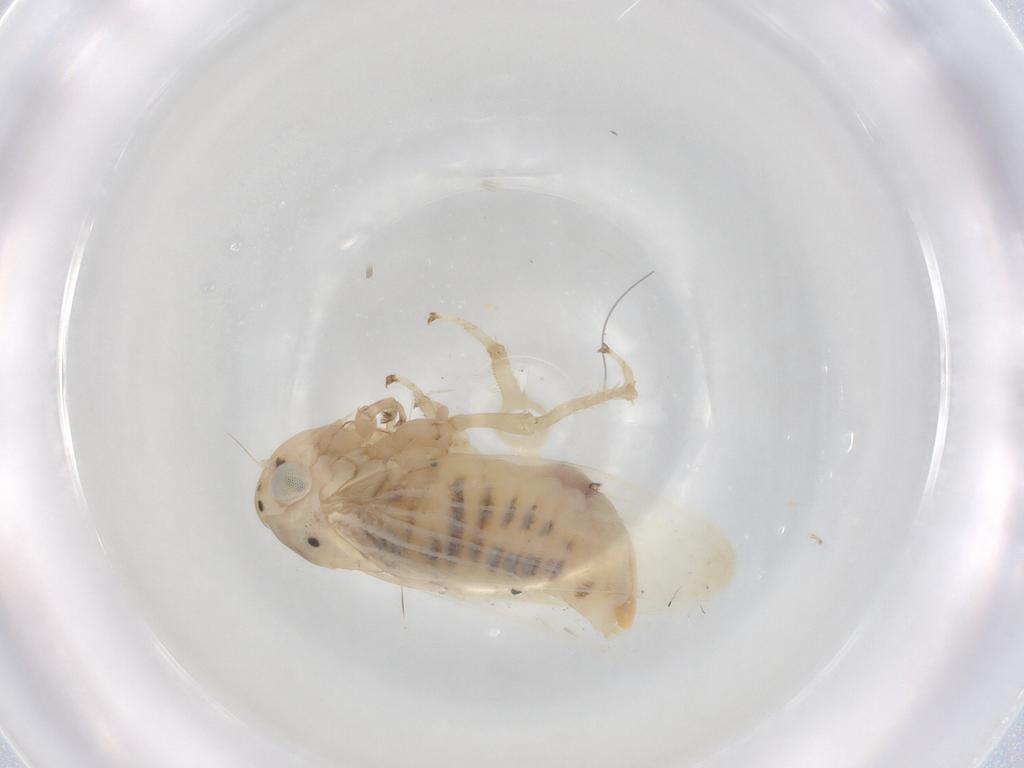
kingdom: Animalia
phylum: Arthropoda
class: Insecta
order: Hemiptera
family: Cicadellidae
